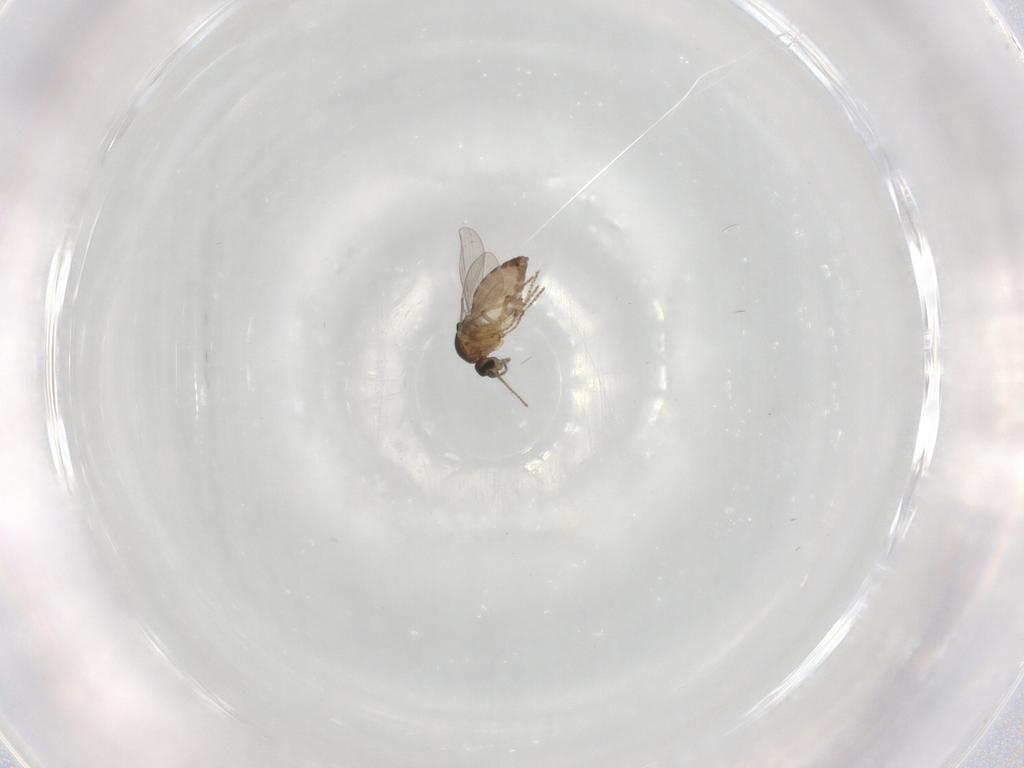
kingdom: Animalia
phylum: Arthropoda
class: Insecta
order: Diptera
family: Ceratopogonidae
